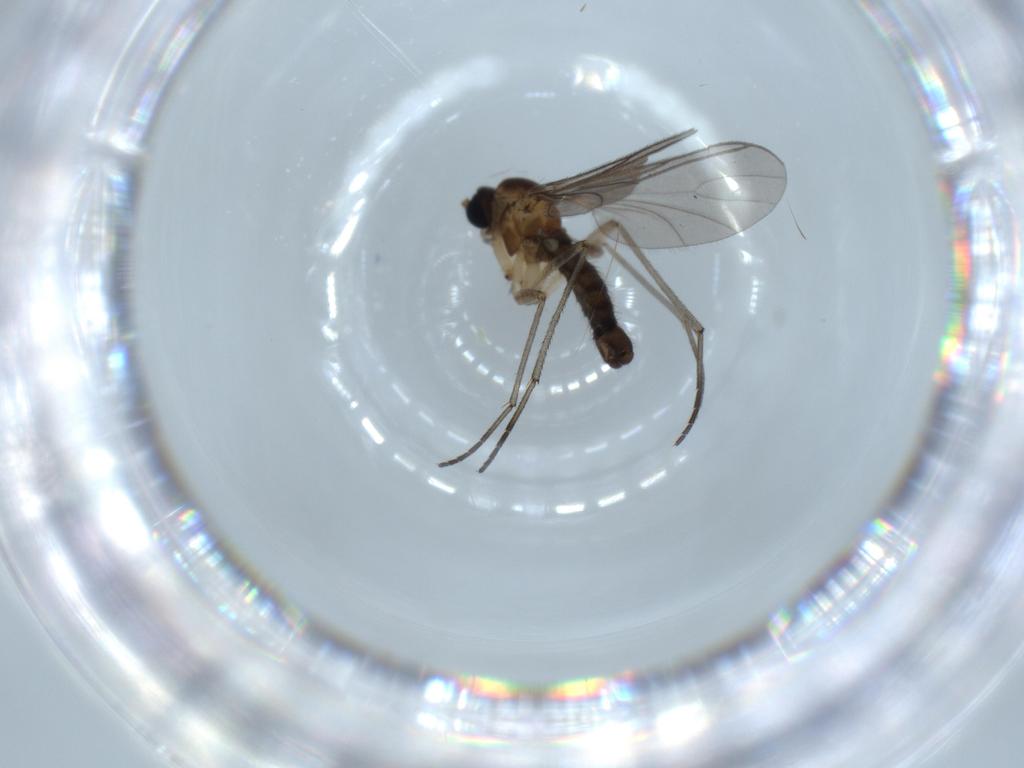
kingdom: Animalia
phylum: Arthropoda
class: Insecta
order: Diptera
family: Sciaridae
